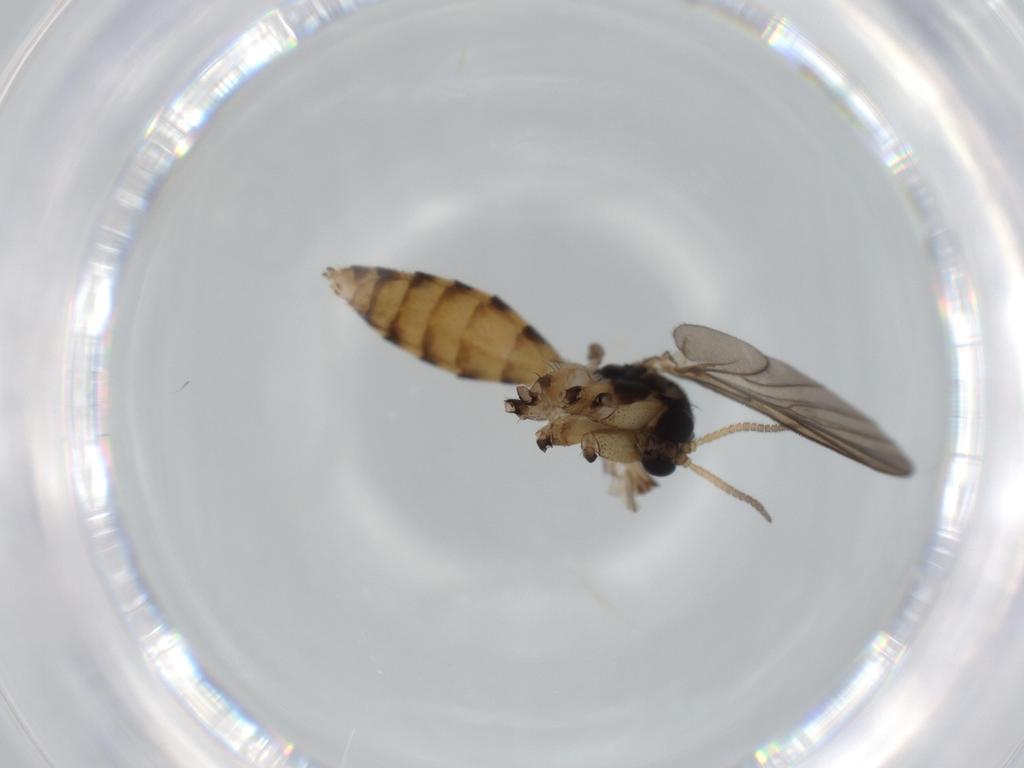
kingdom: Animalia
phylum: Arthropoda
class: Insecta
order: Diptera
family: Mycetophilidae
